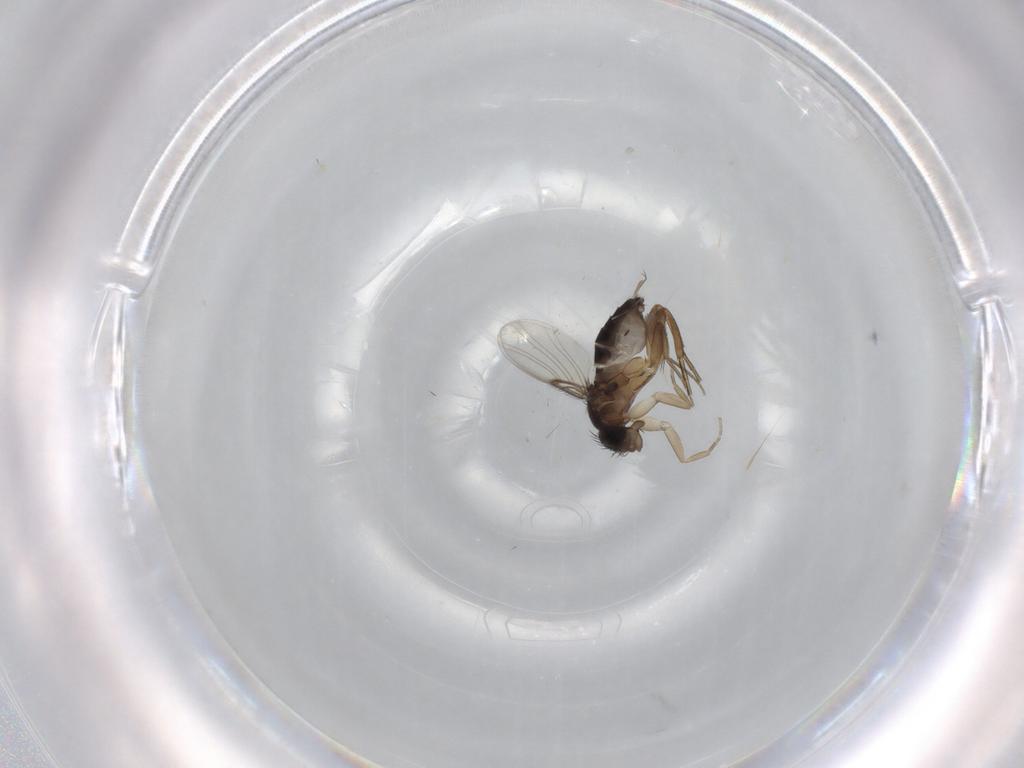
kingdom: Animalia
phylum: Arthropoda
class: Insecta
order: Diptera
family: Phoridae
